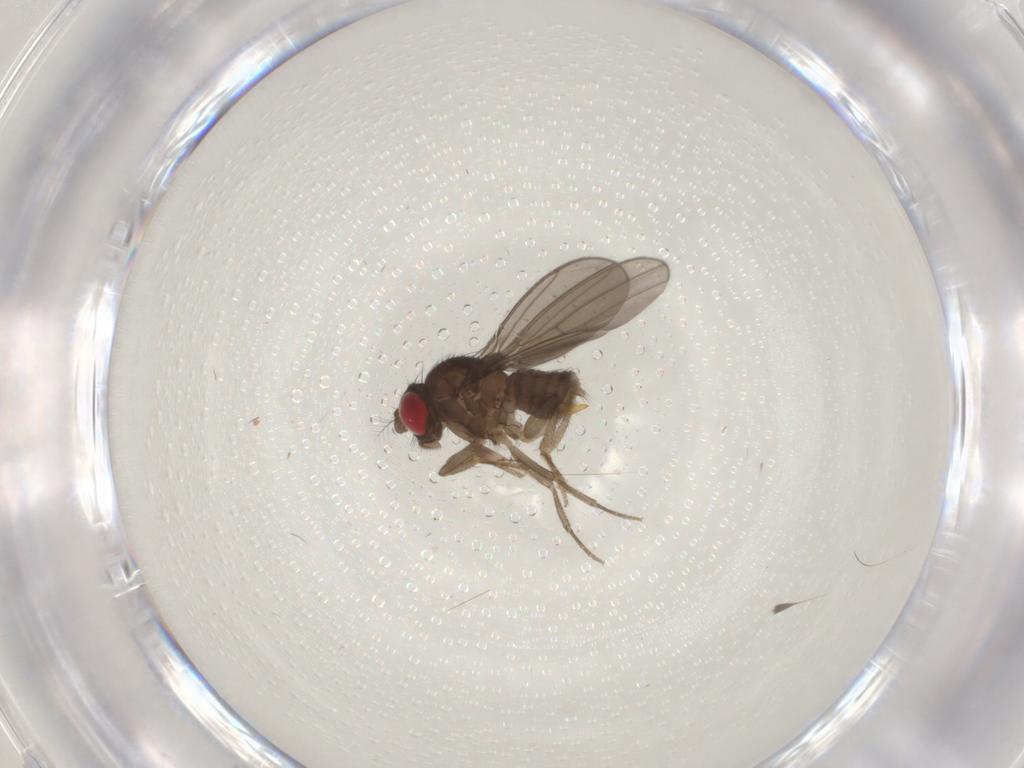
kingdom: Animalia
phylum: Arthropoda
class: Insecta
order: Diptera
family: Drosophilidae
